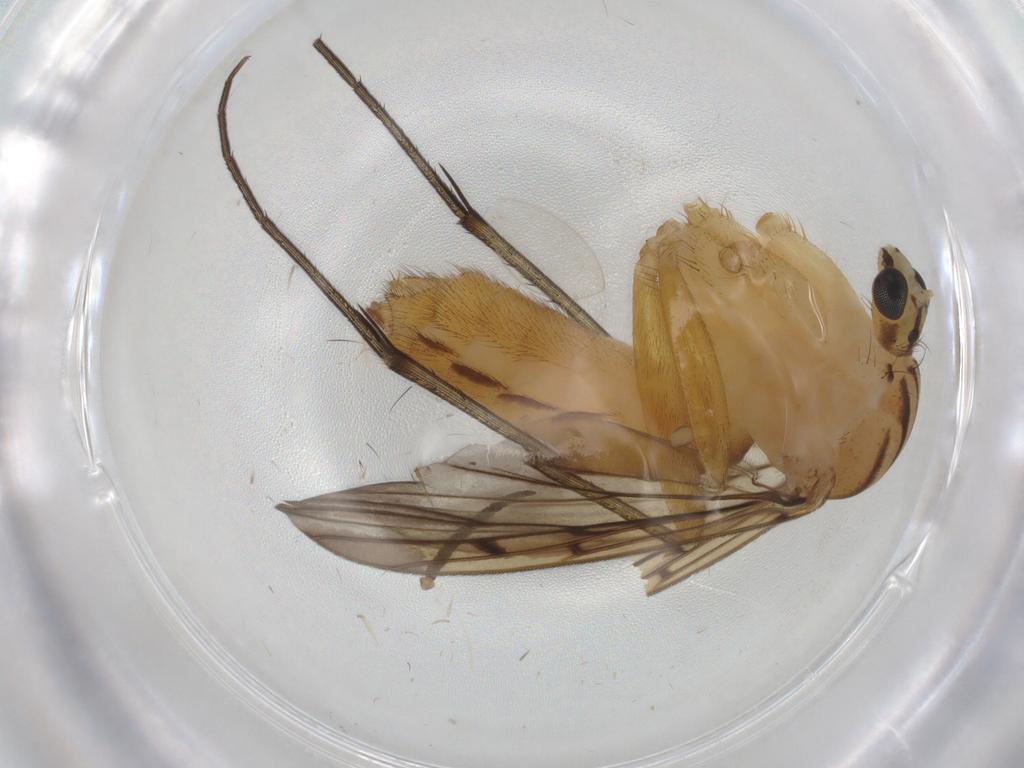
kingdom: Animalia
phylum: Arthropoda
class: Insecta
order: Diptera
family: Mycetophilidae
